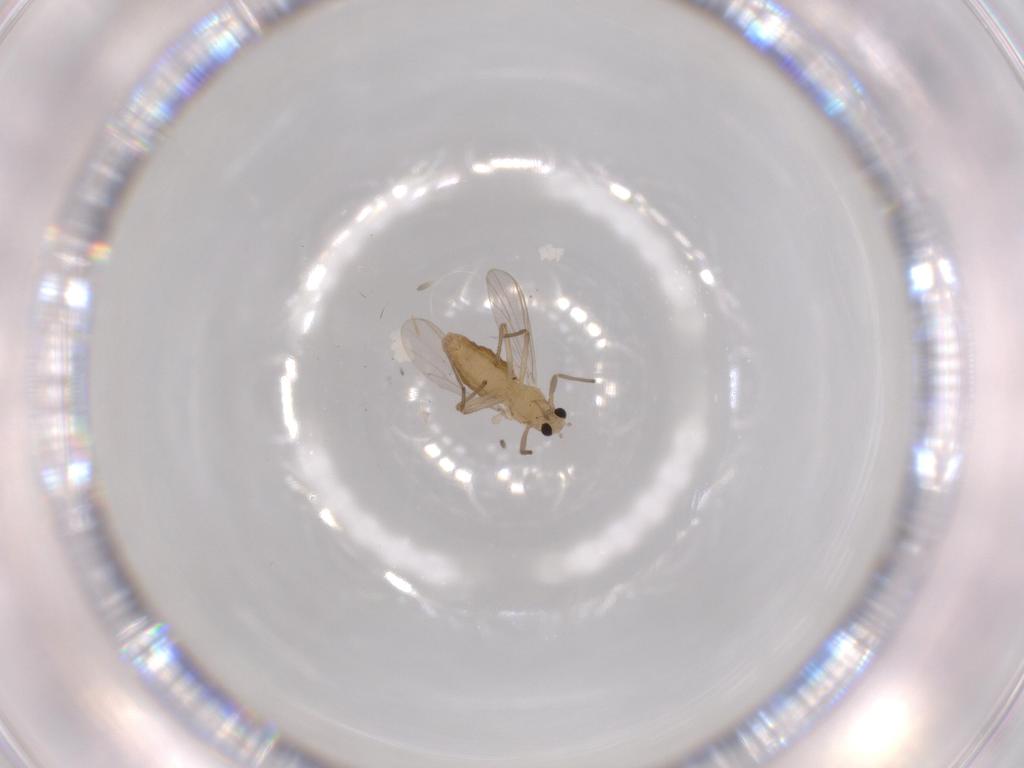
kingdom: Animalia
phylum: Arthropoda
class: Insecta
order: Diptera
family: Chironomidae
